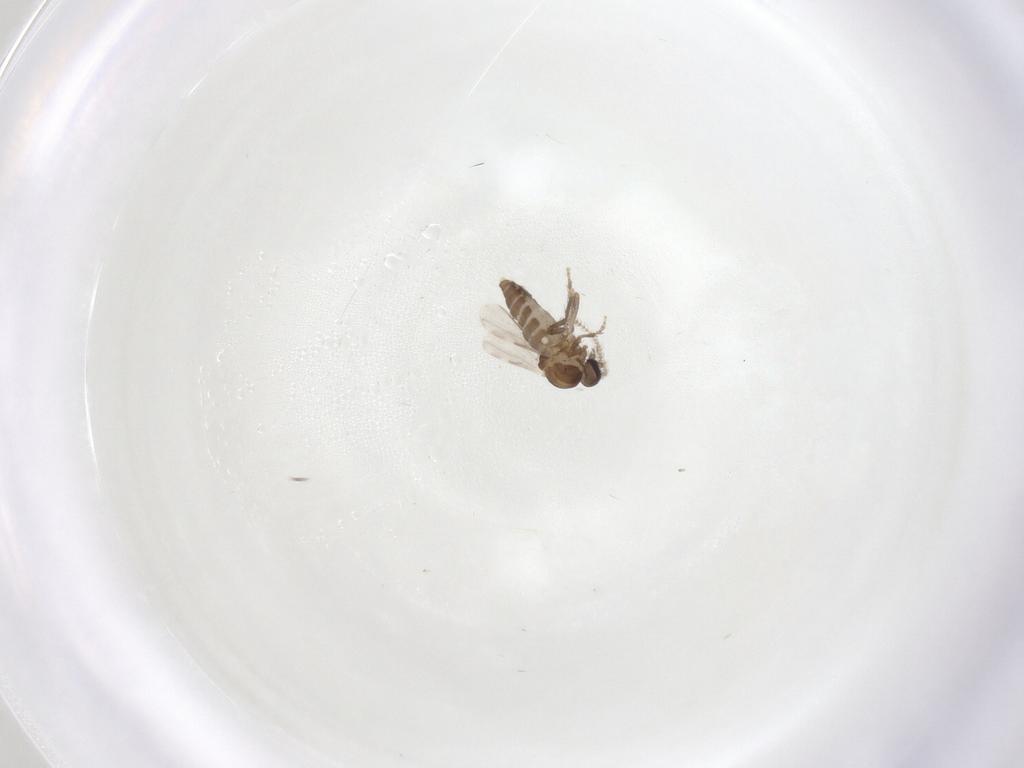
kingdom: Animalia
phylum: Arthropoda
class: Insecta
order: Diptera
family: Ceratopogonidae
